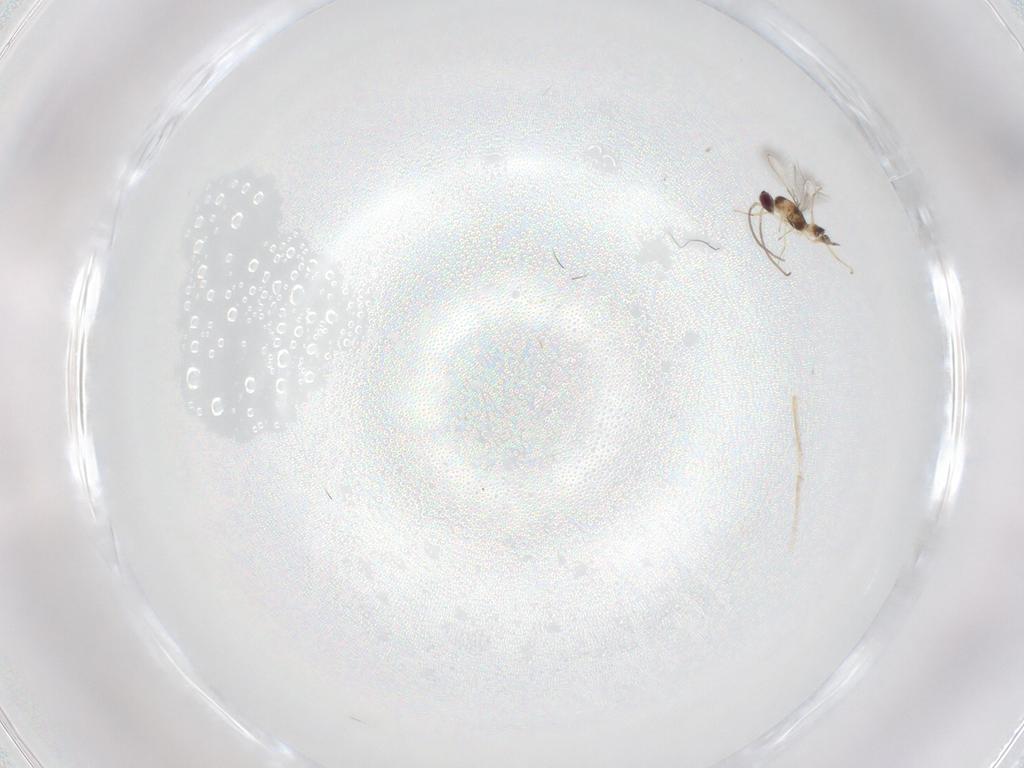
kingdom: Animalia
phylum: Arthropoda
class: Insecta
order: Hymenoptera
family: Mymaridae
